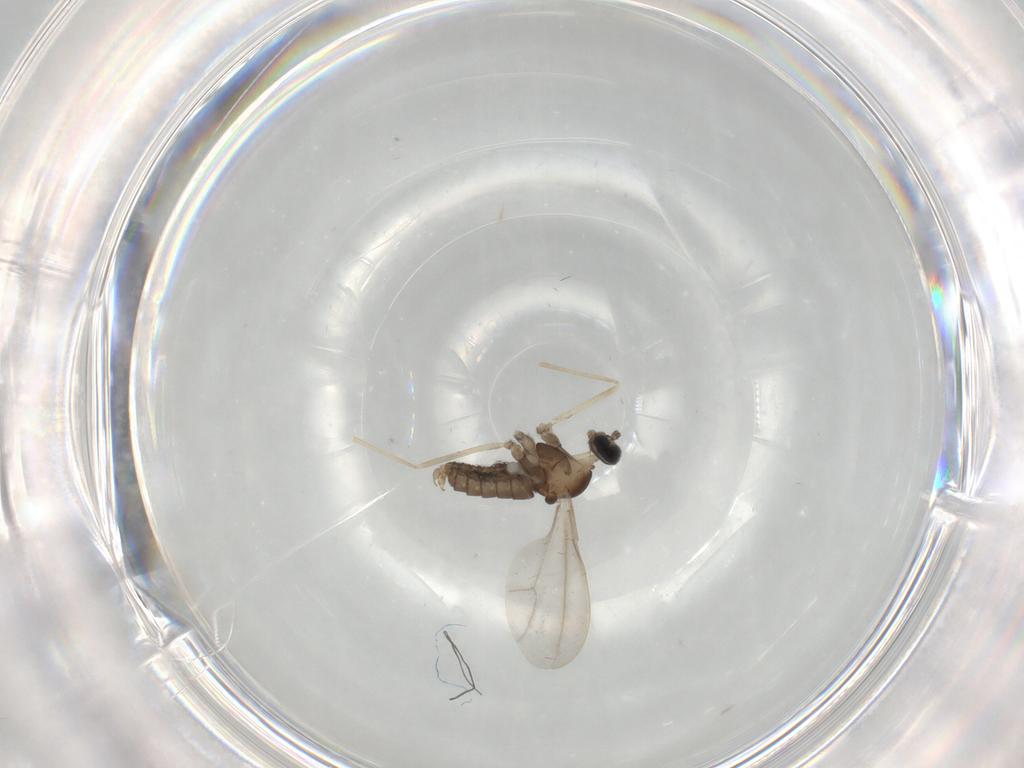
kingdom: Animalia
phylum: Arthropoda
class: Insecta
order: Diptera
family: Cecidomyiidae
